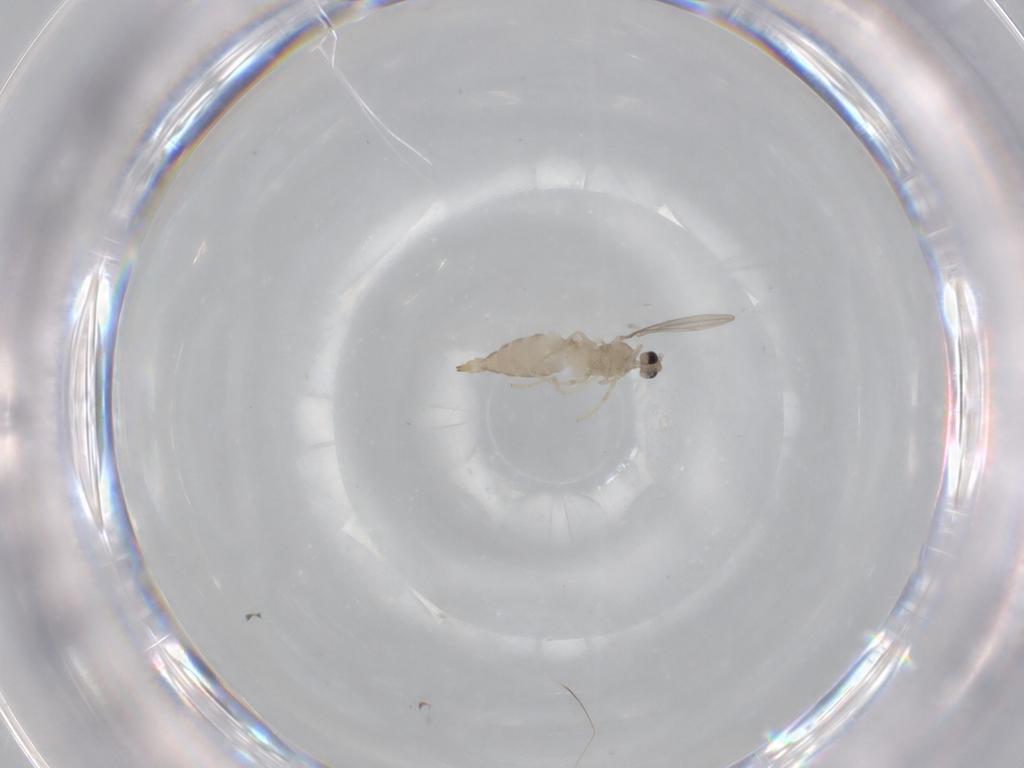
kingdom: Animalia
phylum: Arthropoda
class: Insecta
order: Diptera
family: Cecidomyiidae
